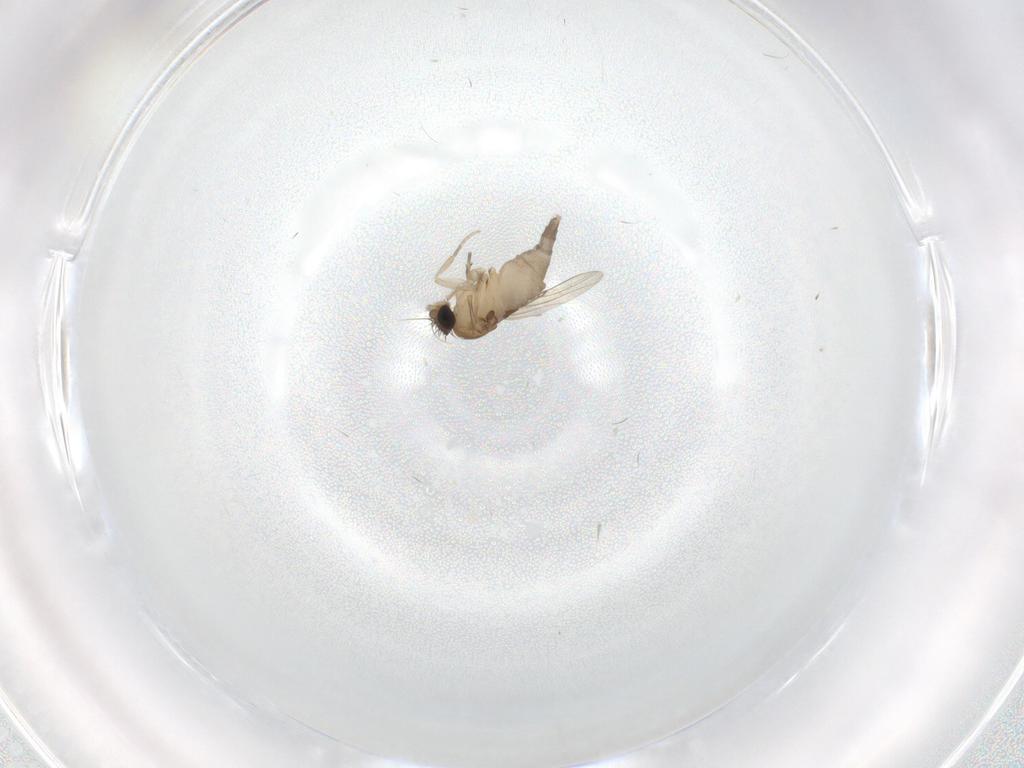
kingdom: Animalia
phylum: Arthropoda
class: Insecta
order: Diptera
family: Phoridae
